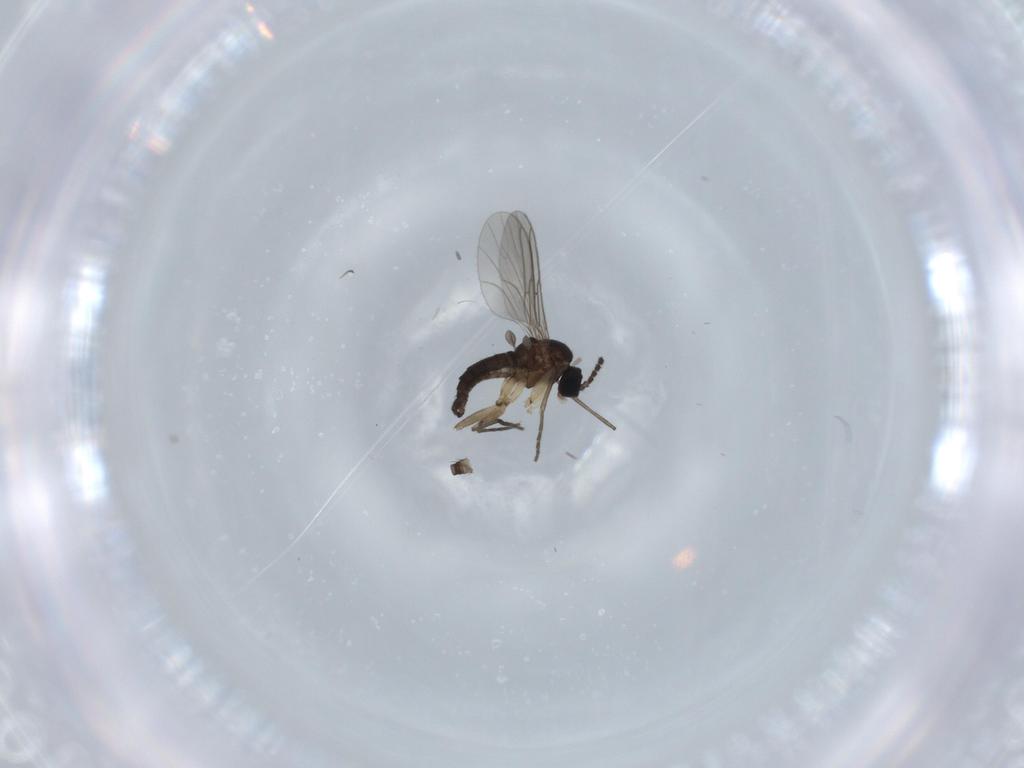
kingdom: Animalia
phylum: Arthropoda
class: Insecta
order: Diptera
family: Sciaridae
